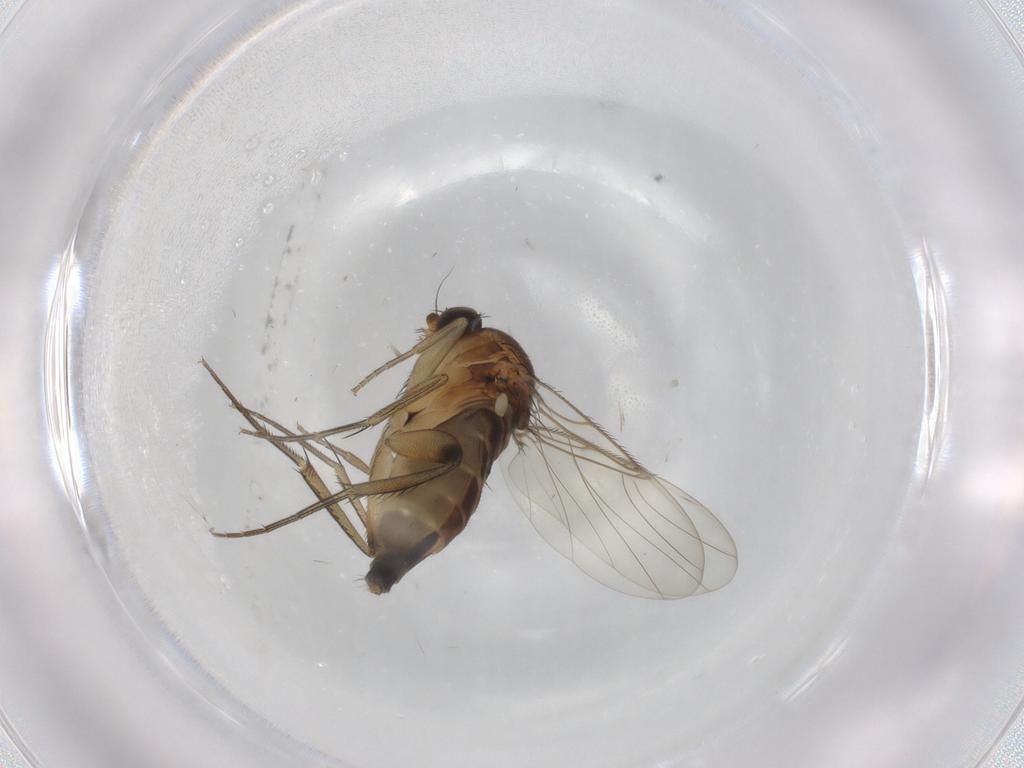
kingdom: Animalia
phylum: Arthropoda
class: Insecta
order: Diptera
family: Phoridae
